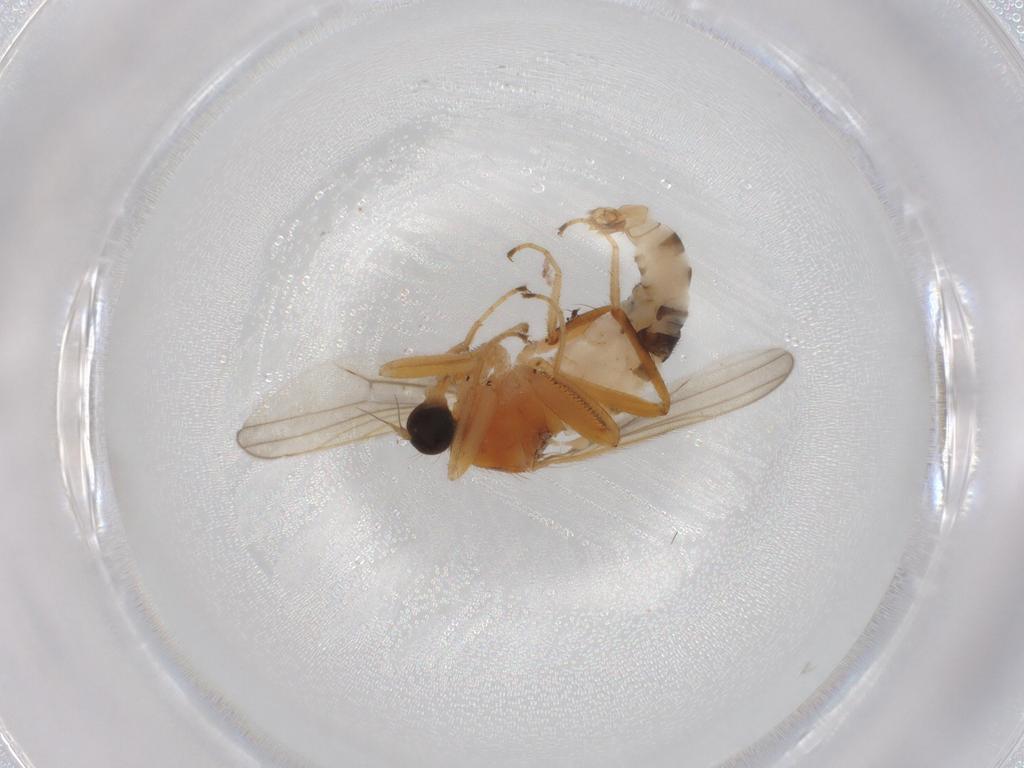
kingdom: Animalia
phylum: Arthropoda
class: Insecta
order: Diptera
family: Hybotidae
